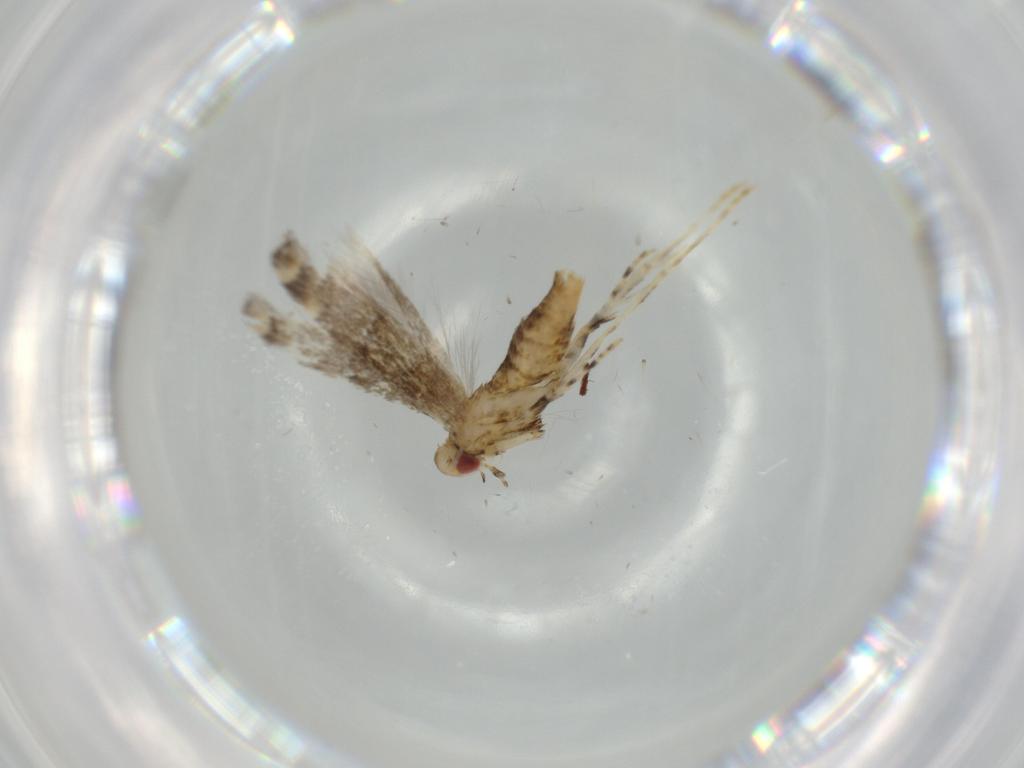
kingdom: Animalia
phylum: Arthropoda
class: Insecta
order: Lepidoptera
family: Gracillariidae
